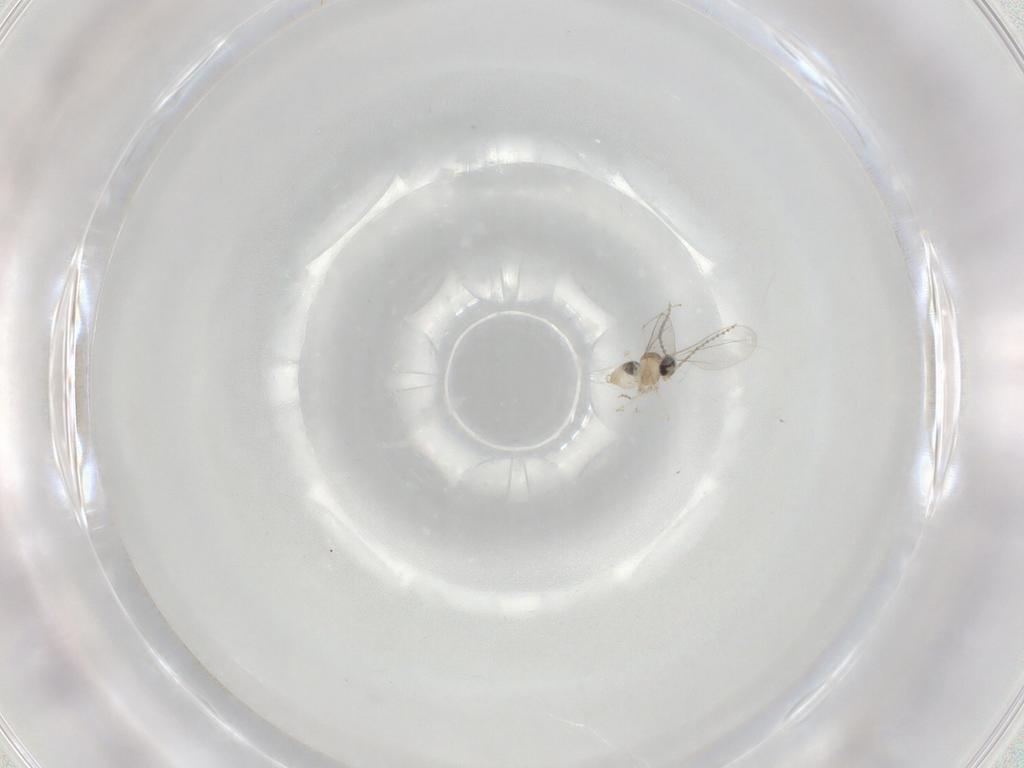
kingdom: Animalia
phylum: Arthropoda
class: Insecta
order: Diptera
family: Cecidomyiidae
